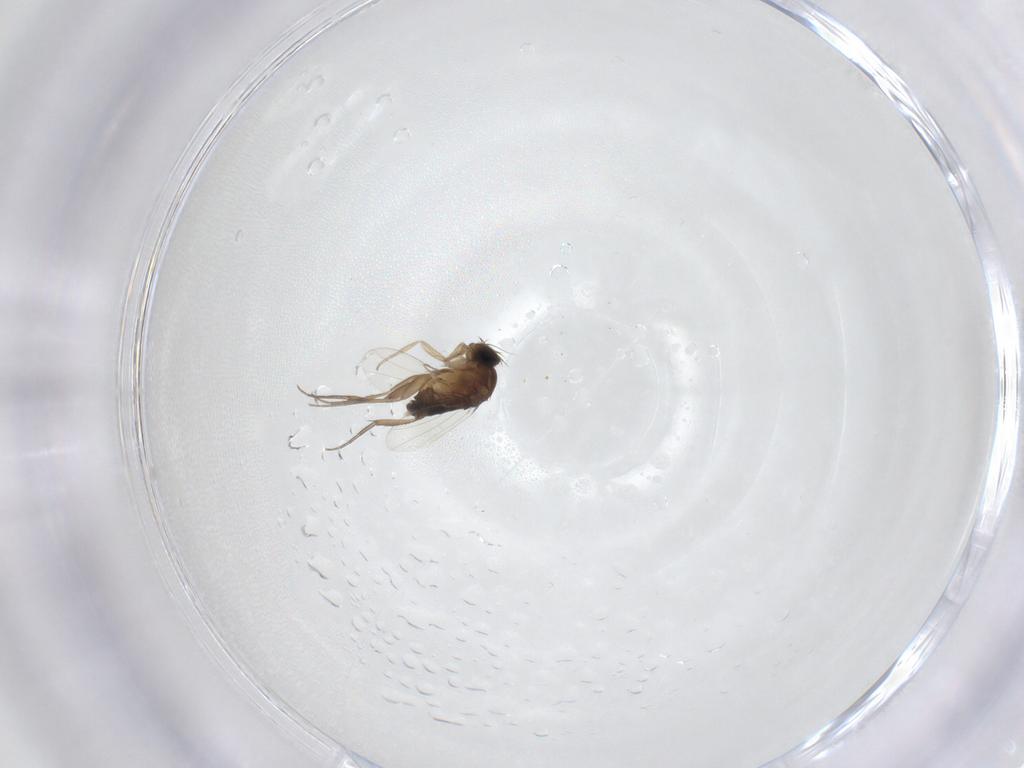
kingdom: Animalia
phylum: Arthropoda
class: Insecta
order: Diptera
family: Phoridae
